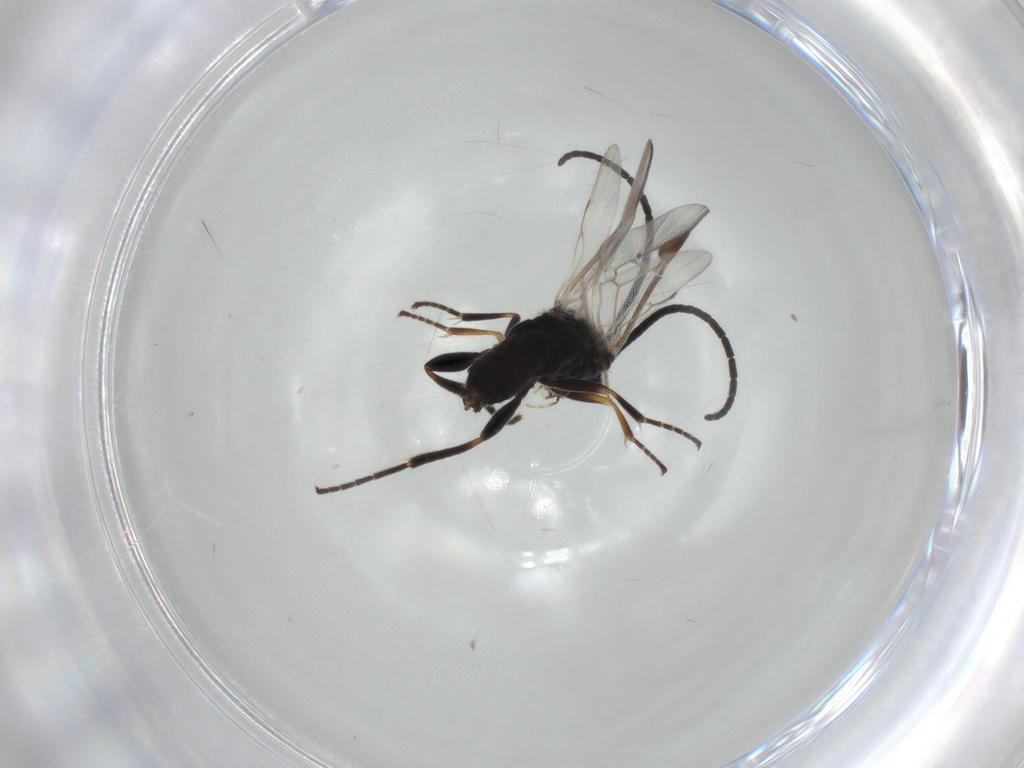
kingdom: Animalia
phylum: Arthropoda
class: Insecta
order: Hymenoptera
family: Braconidae
